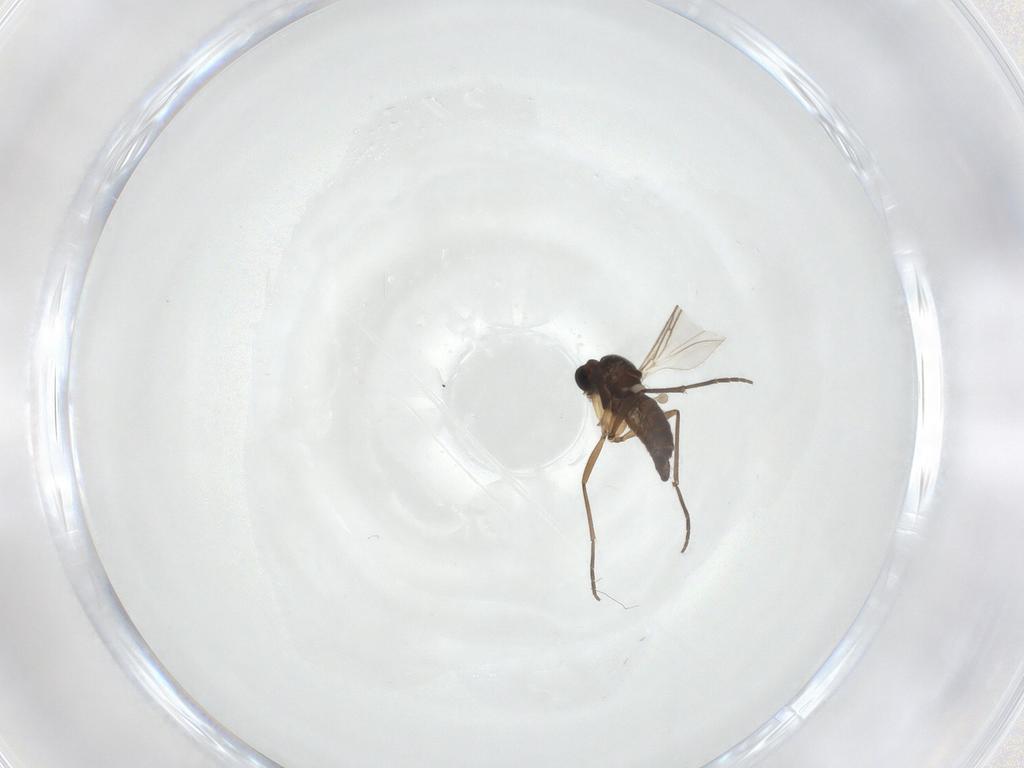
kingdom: Animalia
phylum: Arthropoda
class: Insecta
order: Diptera
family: Sciaridae
